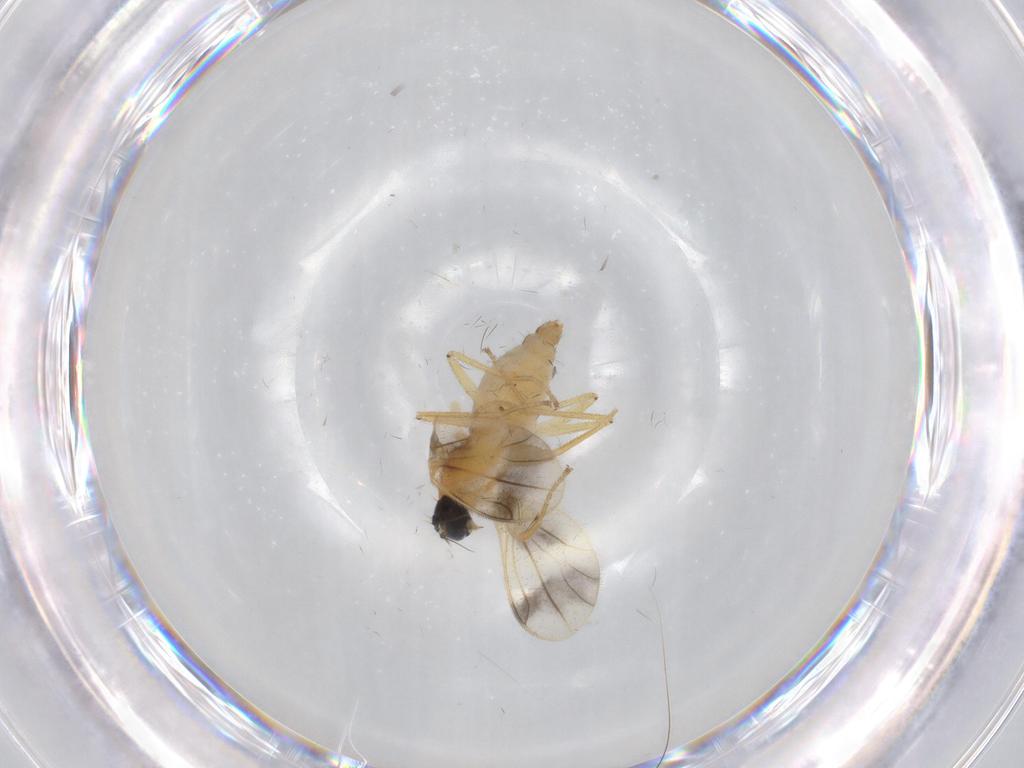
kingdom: Animalia
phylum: Arthropoda
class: Insecta
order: Diptera
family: Empididae
